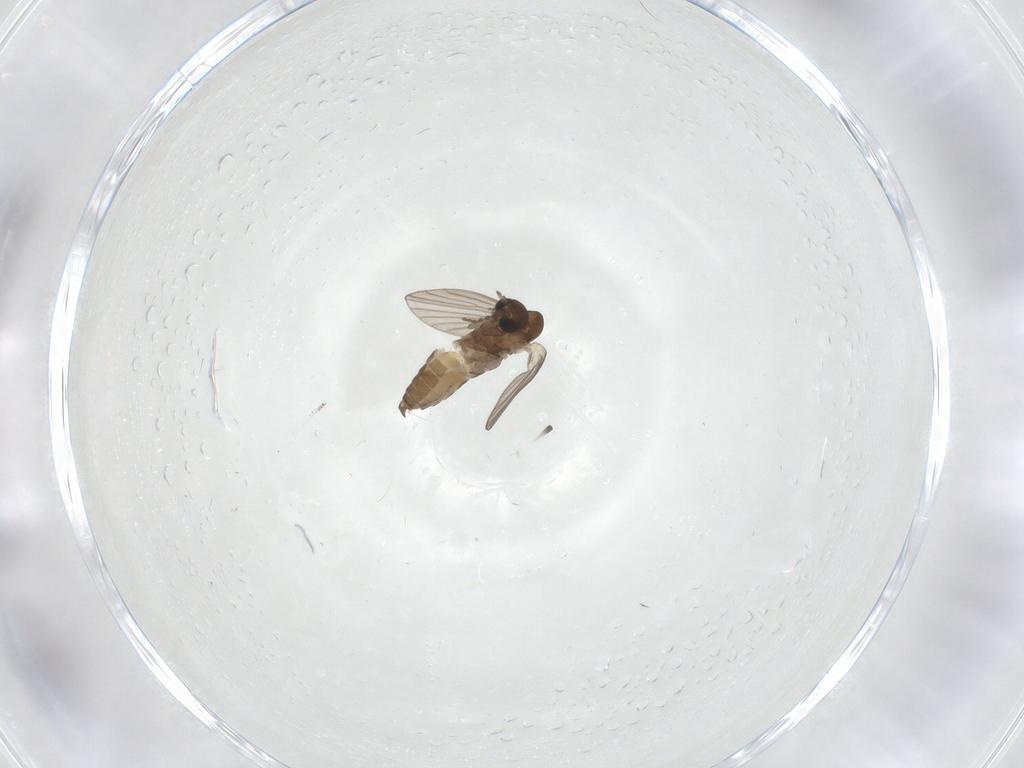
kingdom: Animalia
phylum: Arthropoda
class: Insecta
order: Diptera
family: Psychodidae
